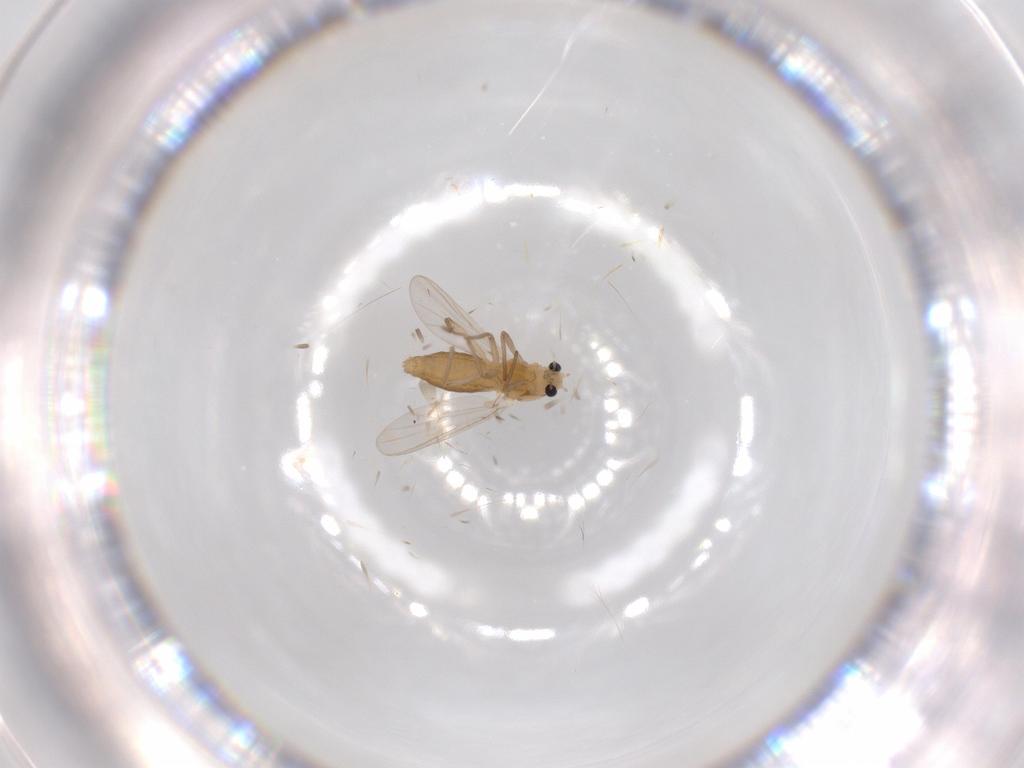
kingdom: Animalia
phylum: Arthropoda
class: Insecta
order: Diptera
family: Chironomidae
